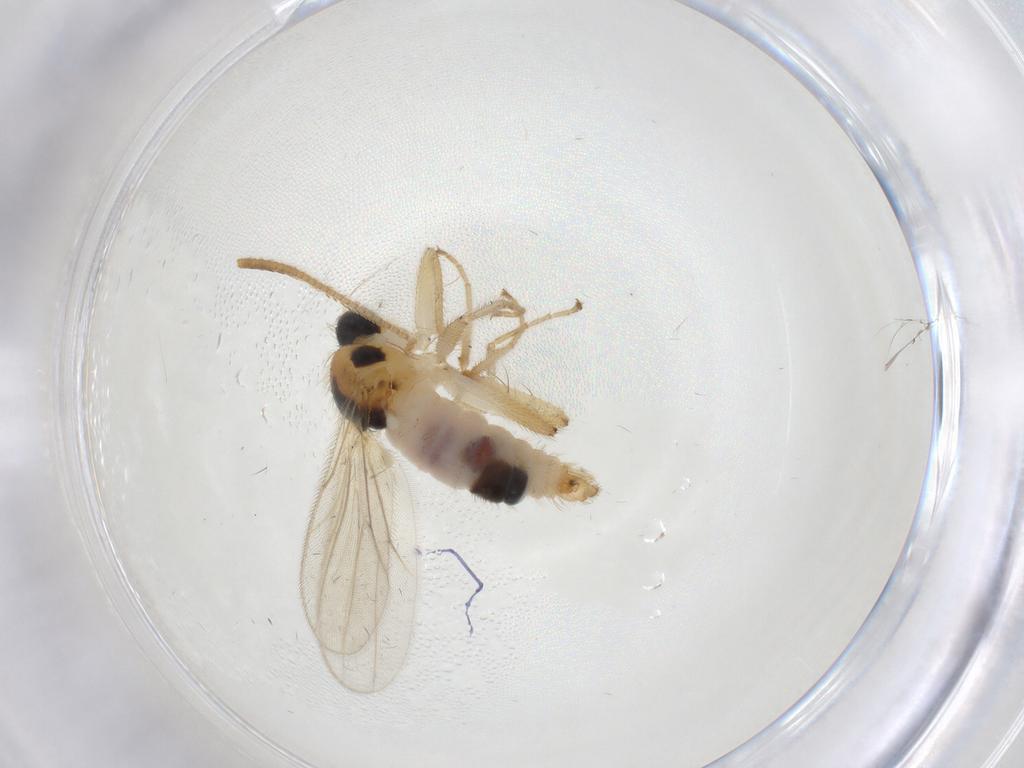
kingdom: Animalia
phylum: Arthropoda
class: Insecta
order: Diptera
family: Hybotidae
